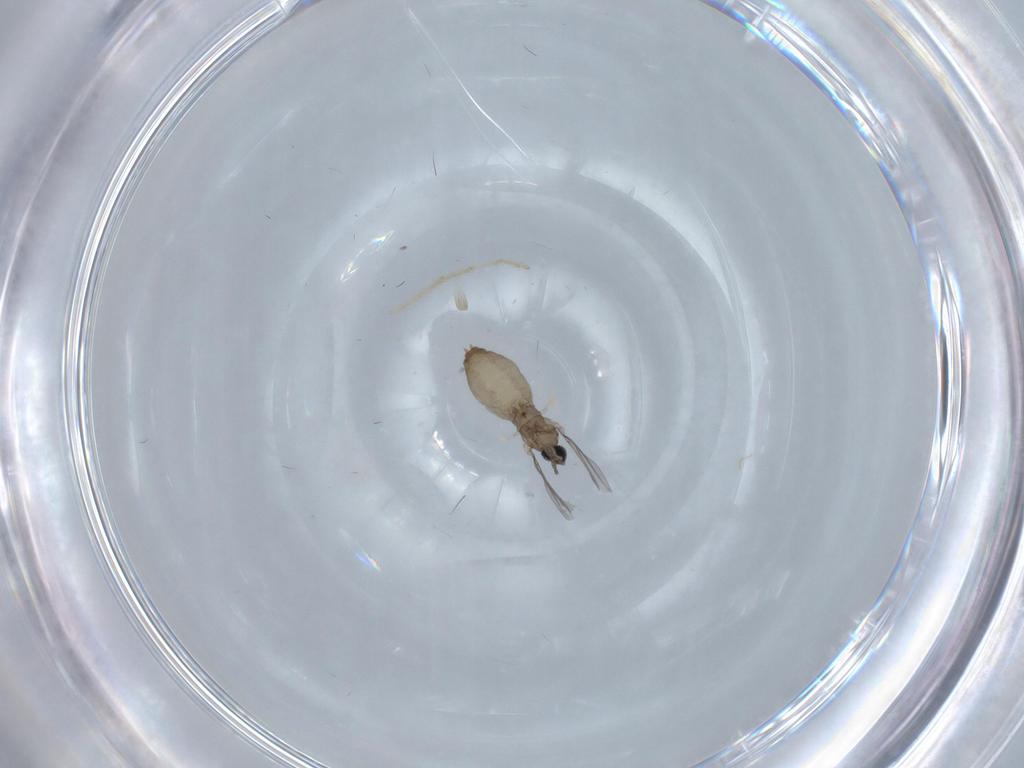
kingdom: Animalia
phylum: Arthropoda
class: Insecta
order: Diptera
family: Chironomidae
